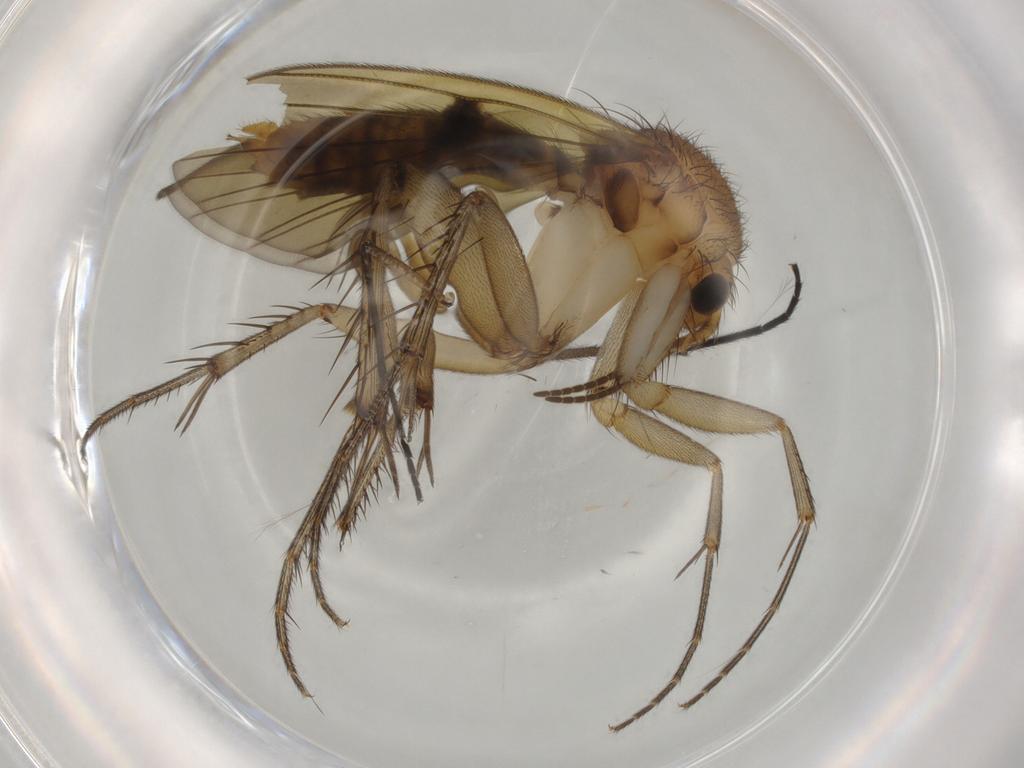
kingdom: Animalia
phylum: Arthropoda
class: Insecta
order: Diptera
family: Mycetophilidae
